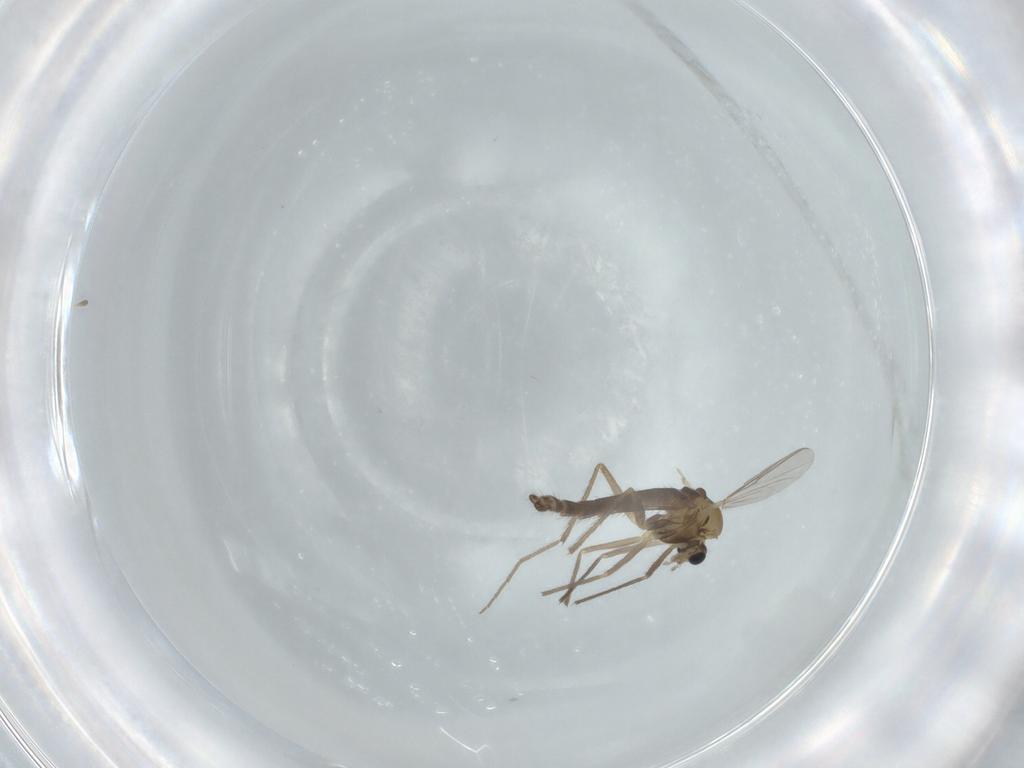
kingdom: Animalia
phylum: Arthropoda
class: Insecta
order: Diptera
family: Chironomidae
